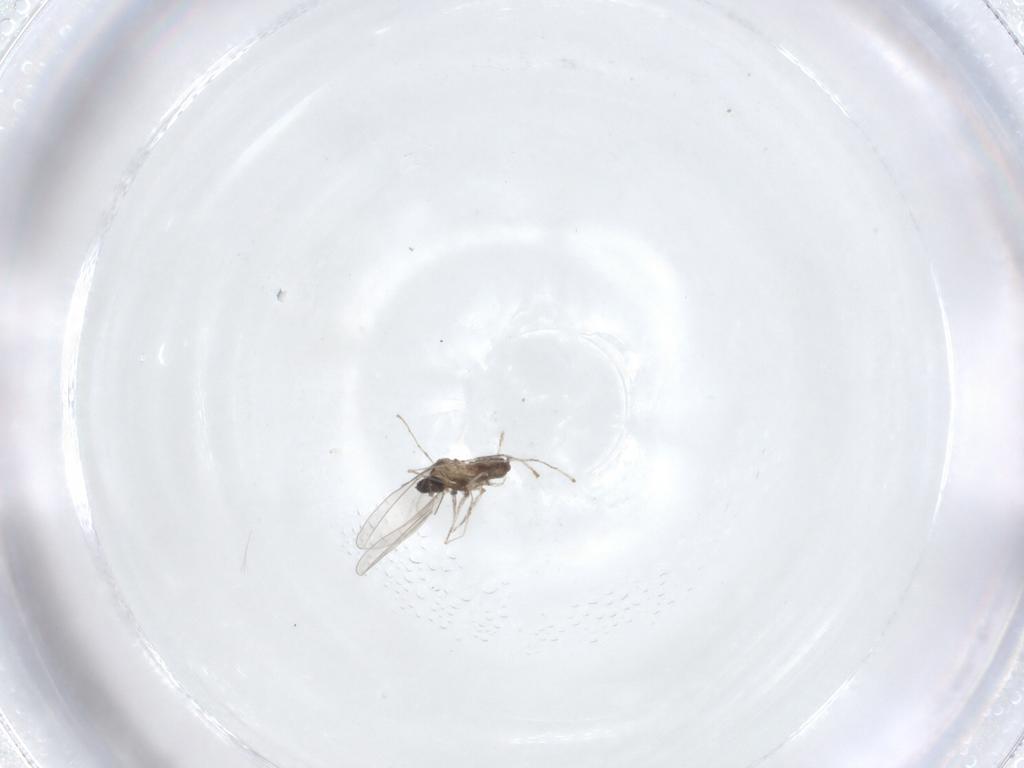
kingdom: Animalia
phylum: Arthropoda
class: Insecta
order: Diptera
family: Cecidomyiidae
